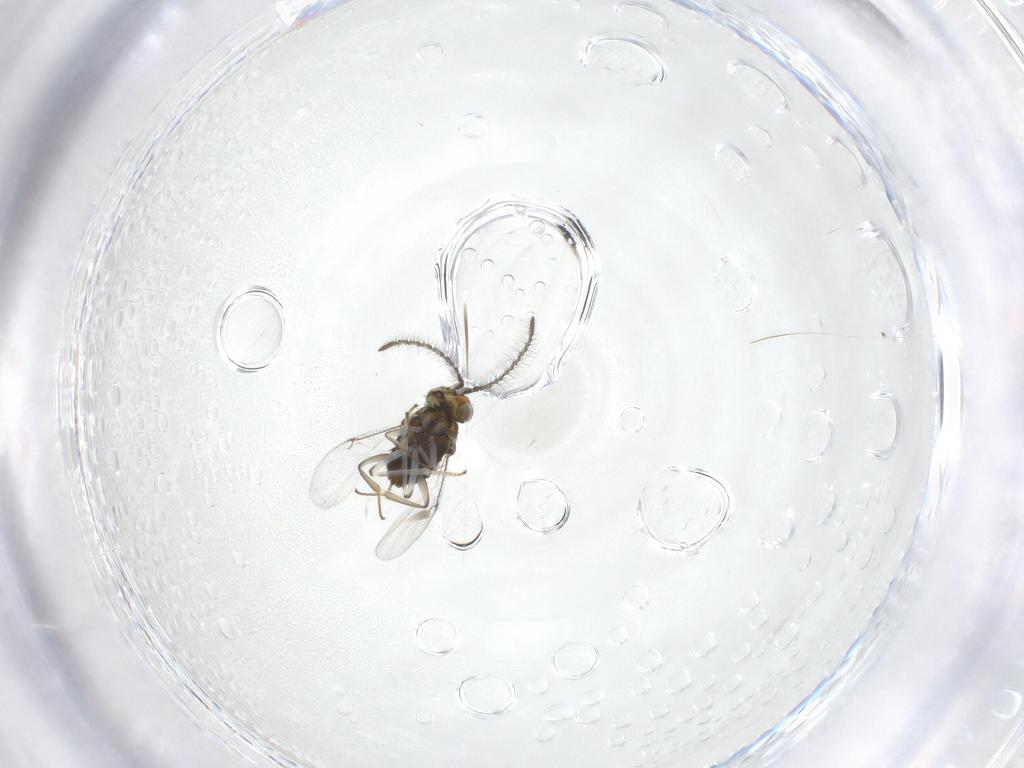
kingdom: Animalia
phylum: Arthropoda
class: Insecta
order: Hymenoptera
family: Encyrtidae
